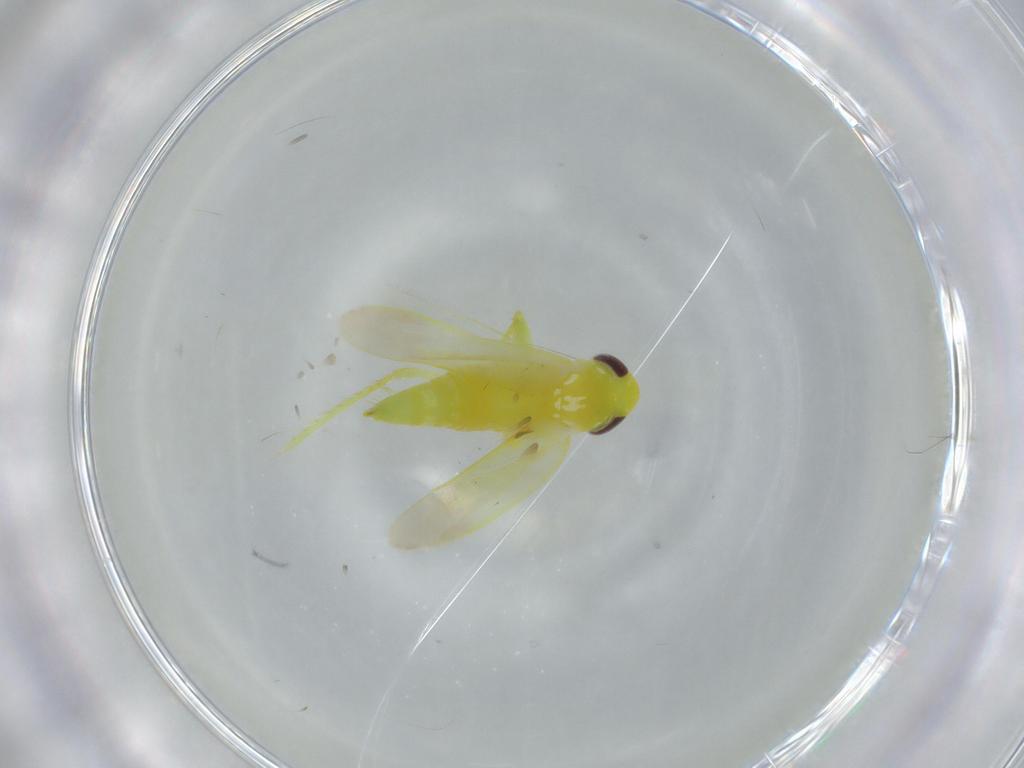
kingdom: Animalia
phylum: Arthropoda
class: Insecta
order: Hemiptera
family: Cicadellidae
